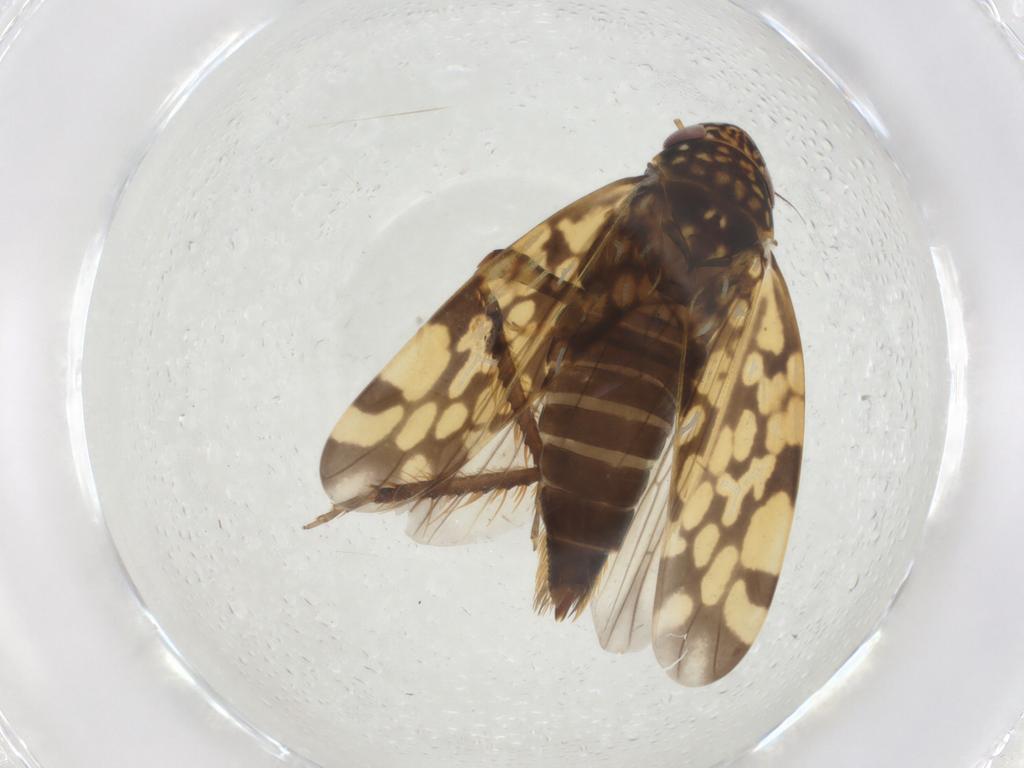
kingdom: Animalia
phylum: Arthropoda
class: Insecta
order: Hemiptera
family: Cicadellidae
